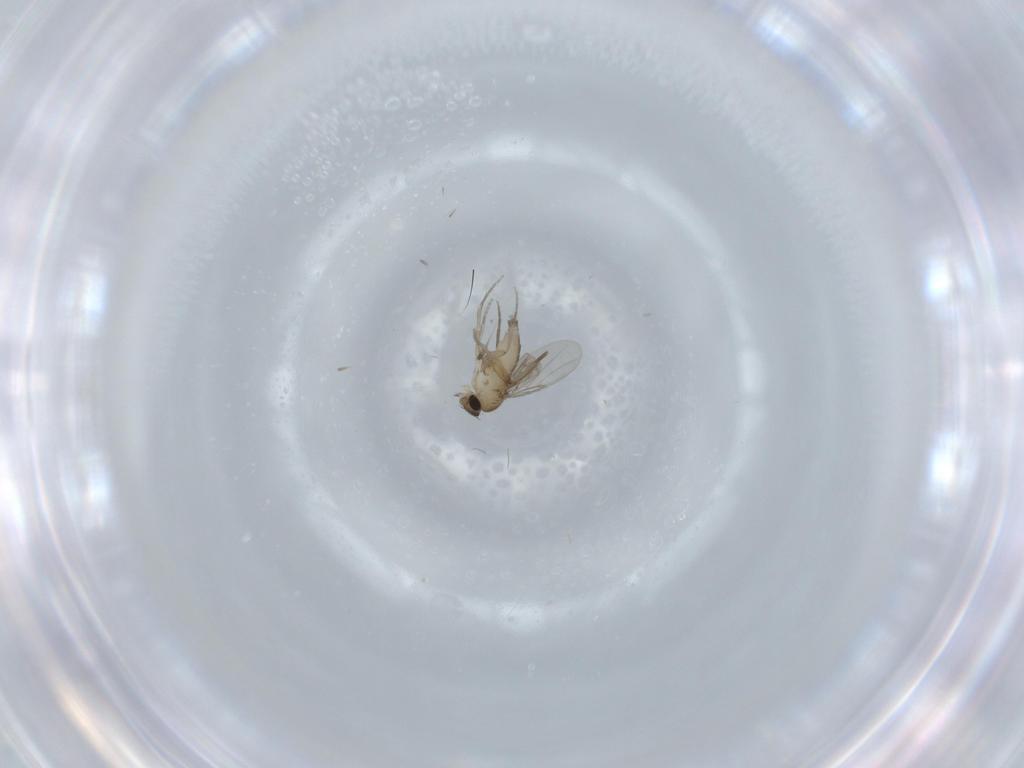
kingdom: Animalia
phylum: Arthropoda
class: Insecta
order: Diptera
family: Phoridae
